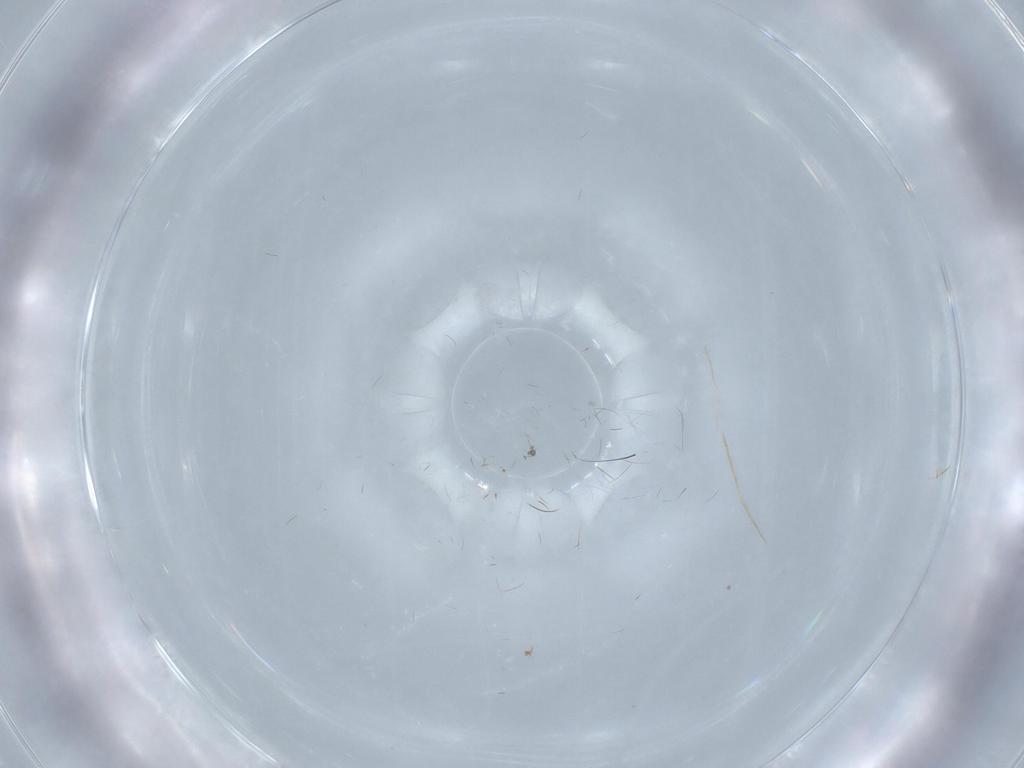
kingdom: Animalia
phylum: Arthropoda
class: Insecta
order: Diptera
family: Cecidomyiidae
